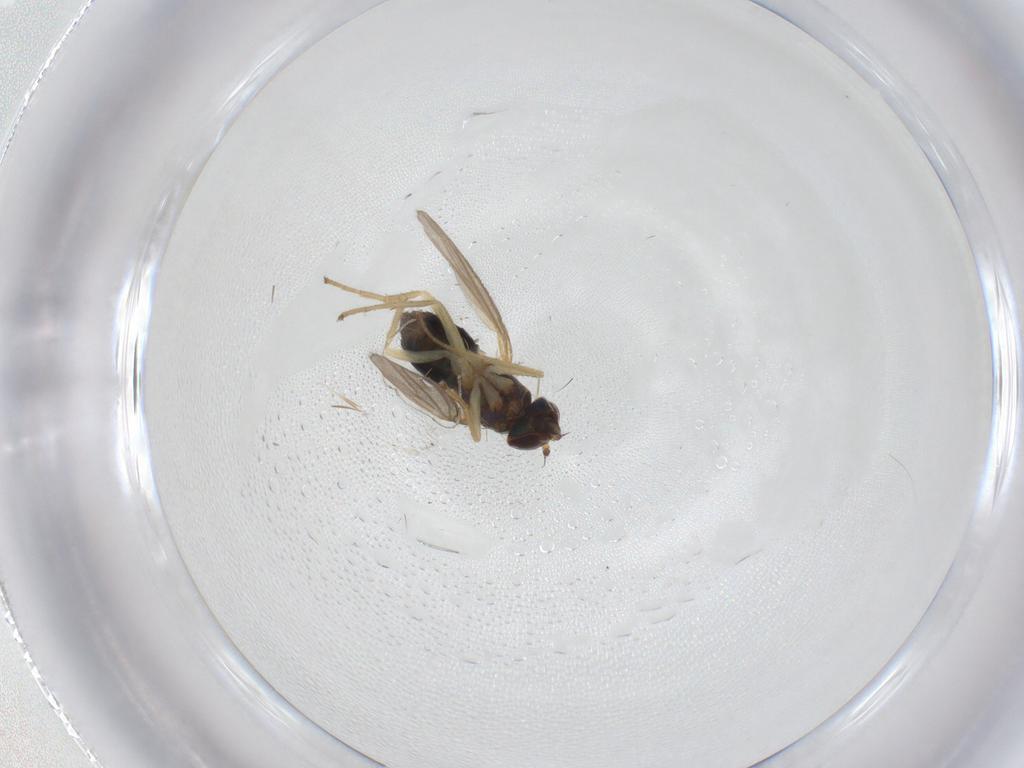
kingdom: Animalia
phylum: Arthropoda
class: Insecta
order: Diptera
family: Dolichopodidae
